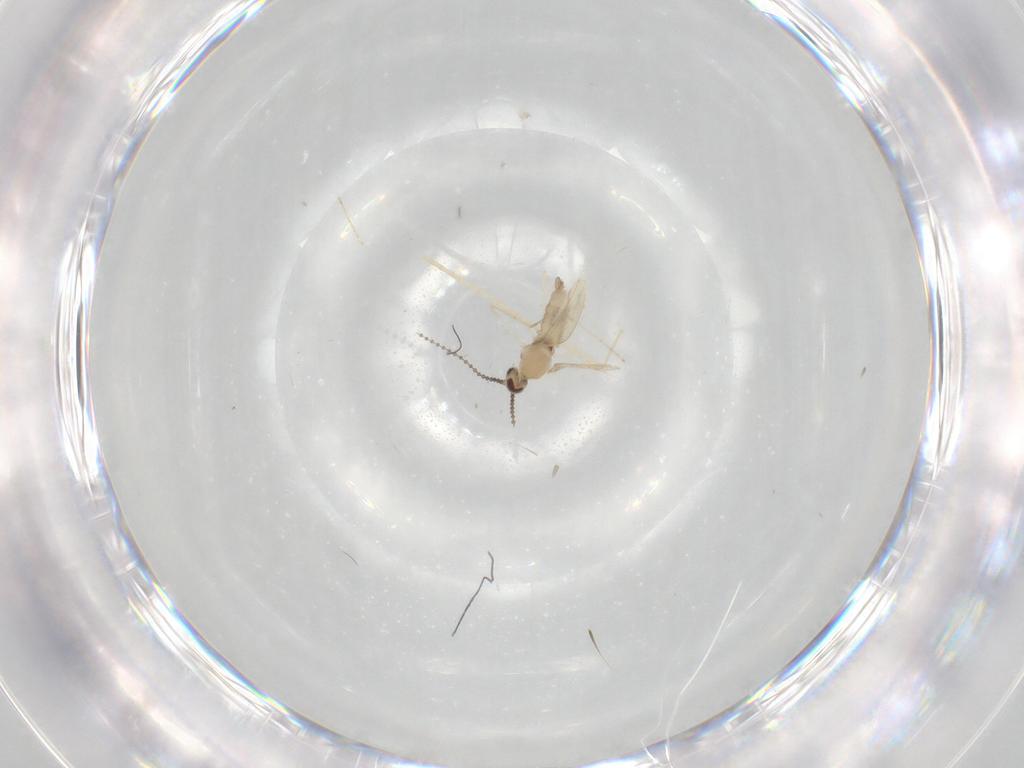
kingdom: Animalia
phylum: Arthropoda
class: Insecta
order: Diptera
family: Cecidomyiidae
